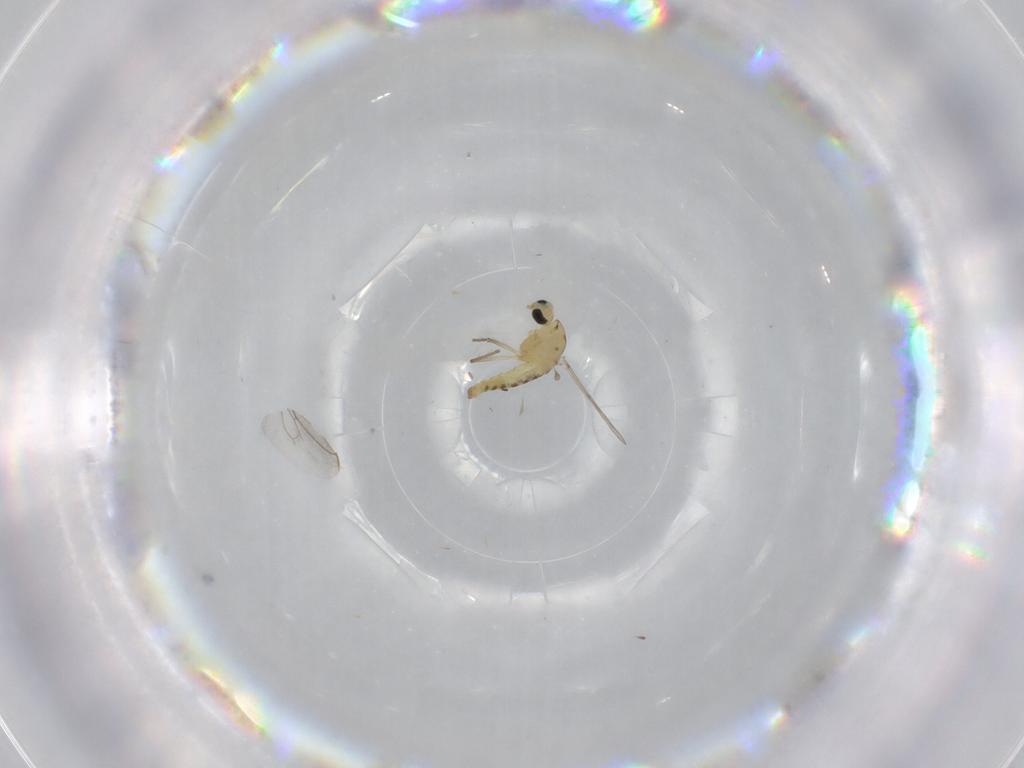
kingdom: Animalia
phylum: Arthropoda
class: Insecta
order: Diptera
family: Chironomidae
